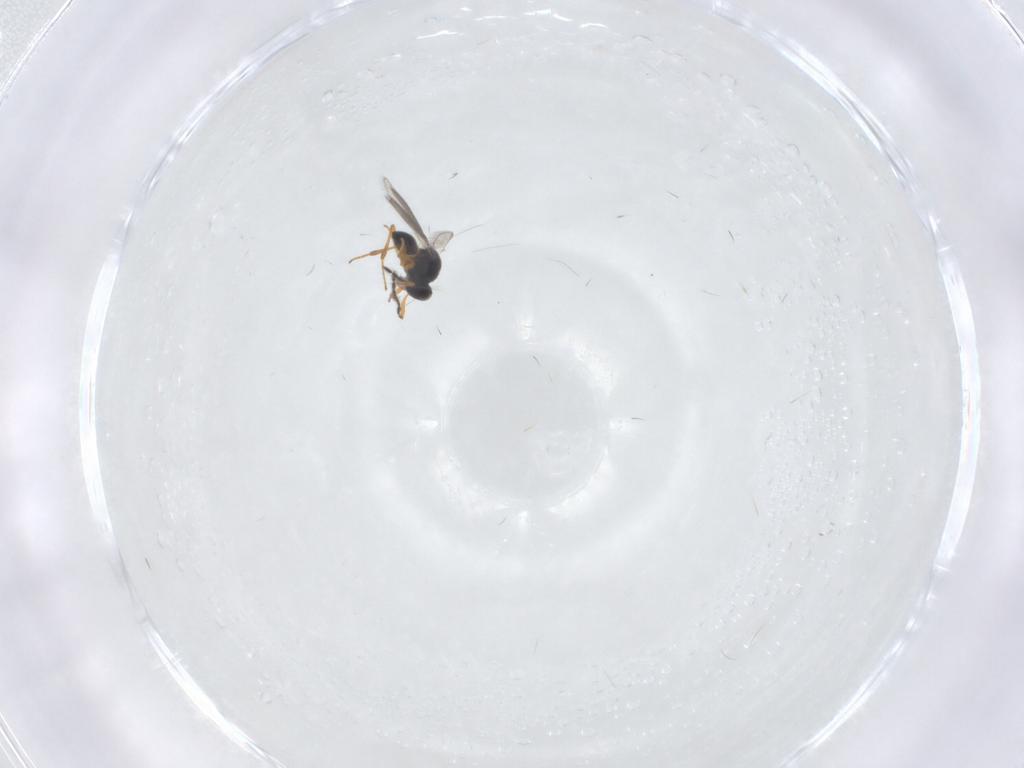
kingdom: Animalia
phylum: Arthropoda
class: Insecta
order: Hymenoptera
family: Platygastridae
